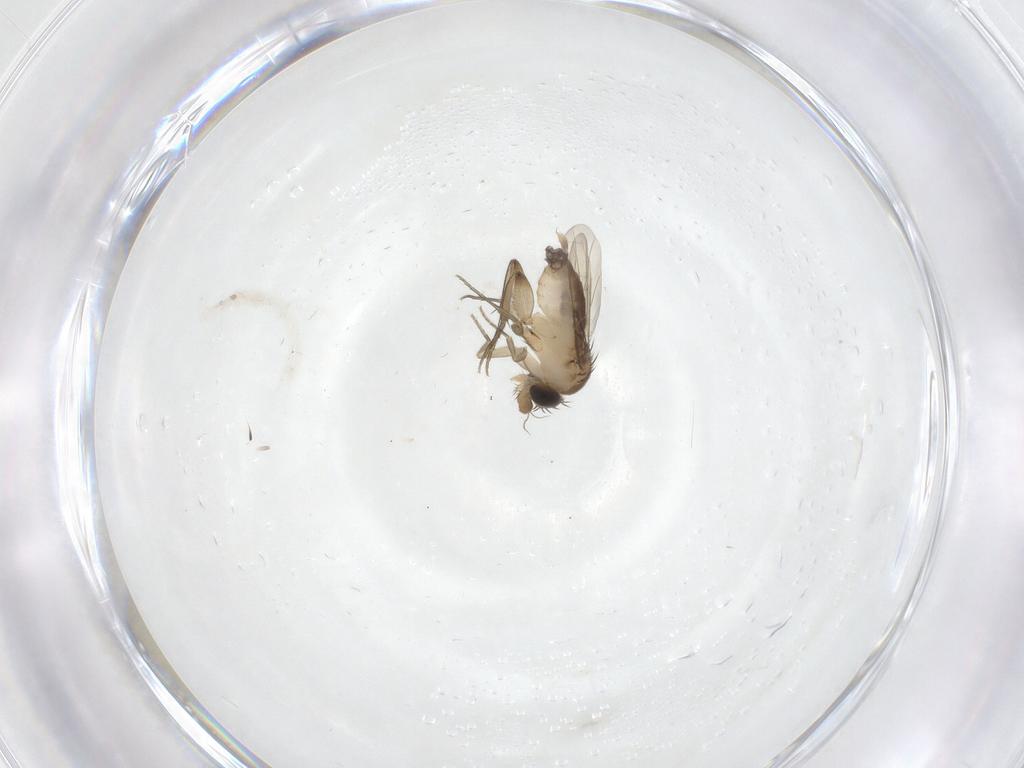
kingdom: Animalia
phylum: Arthropoda
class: Insecta
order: Diptera
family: Phoridae
